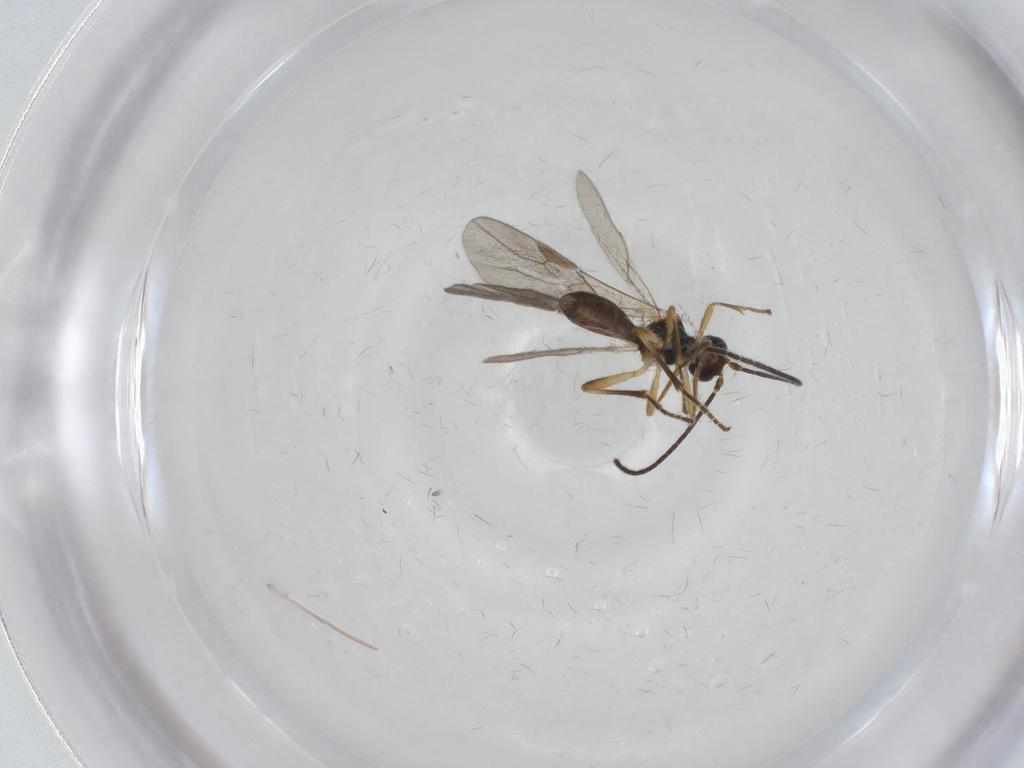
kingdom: Animalia
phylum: Arthropoda
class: Insecta
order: Hymenoptera
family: Braconidae
